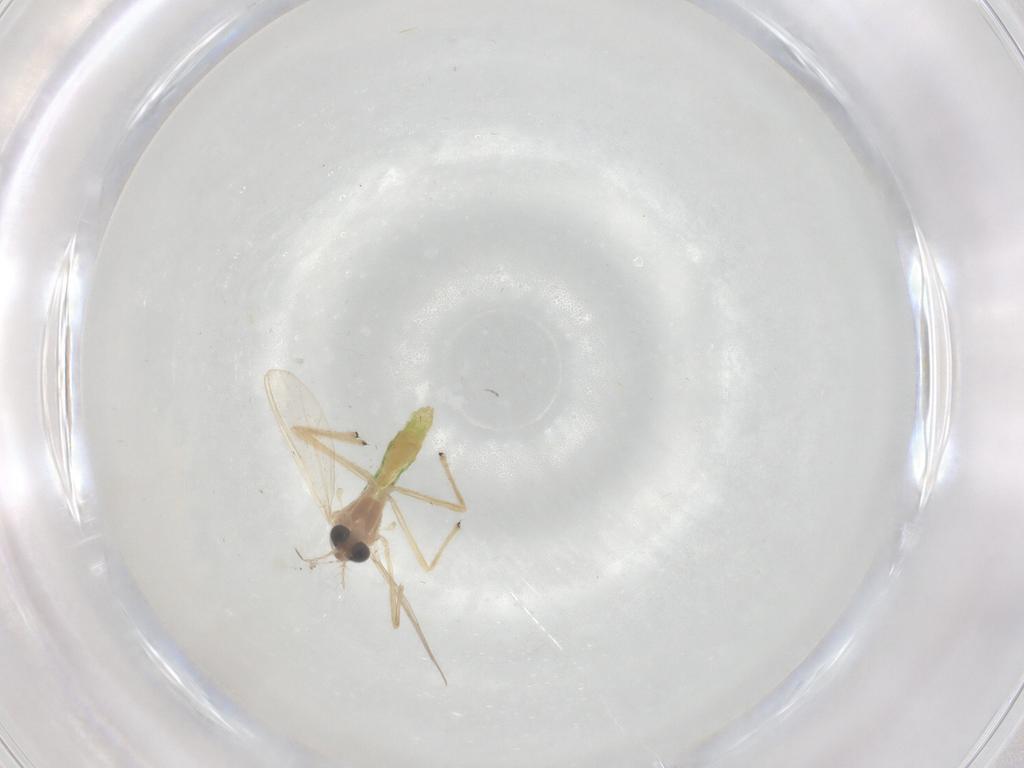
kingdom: Animalia
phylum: Arthropoda
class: Insecta
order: Diptera
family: Chironomidae
